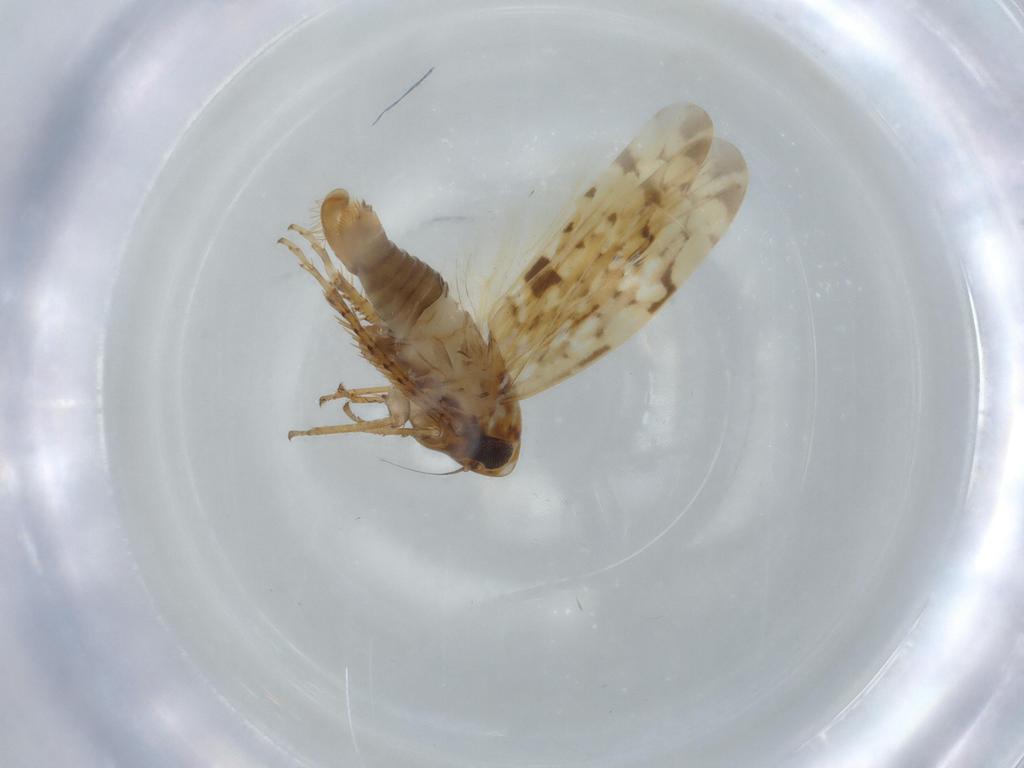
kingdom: Animalia
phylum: Arthropoda
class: Insecta
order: Hemiptera
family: Cicadellidae
